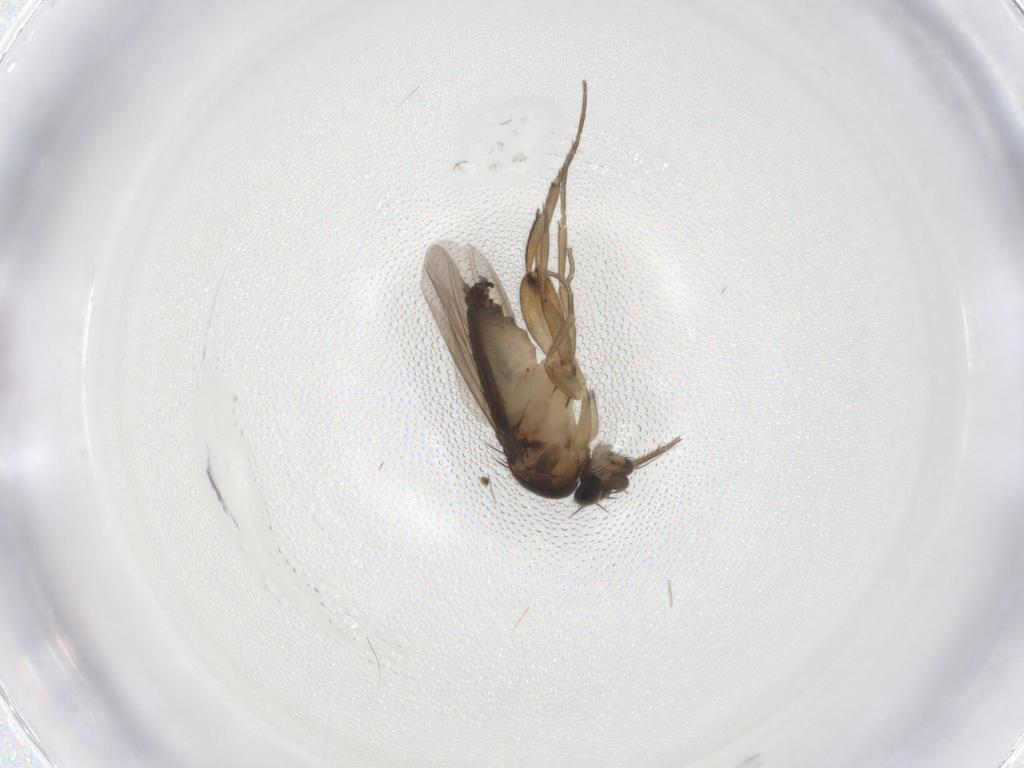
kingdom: Animalia
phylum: Arthropoda
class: Insecta
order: Diptera
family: Phoridae
